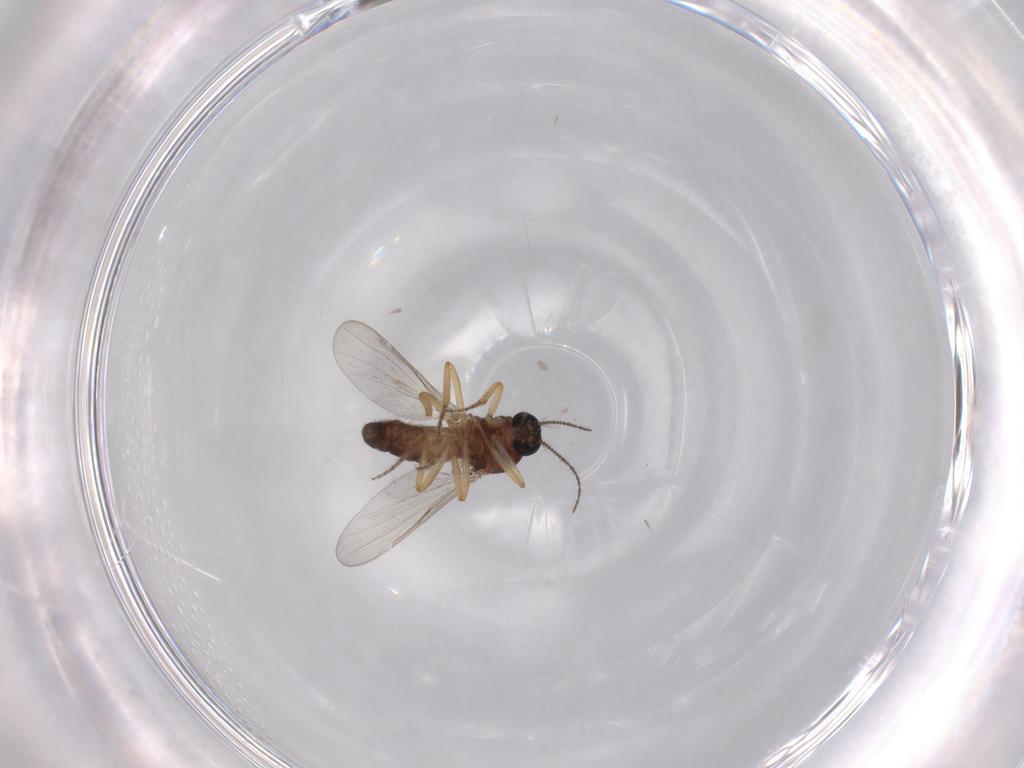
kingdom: Animalia
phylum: Arthropoda
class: Insecta
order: Diptera
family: Ceratopogonidae
